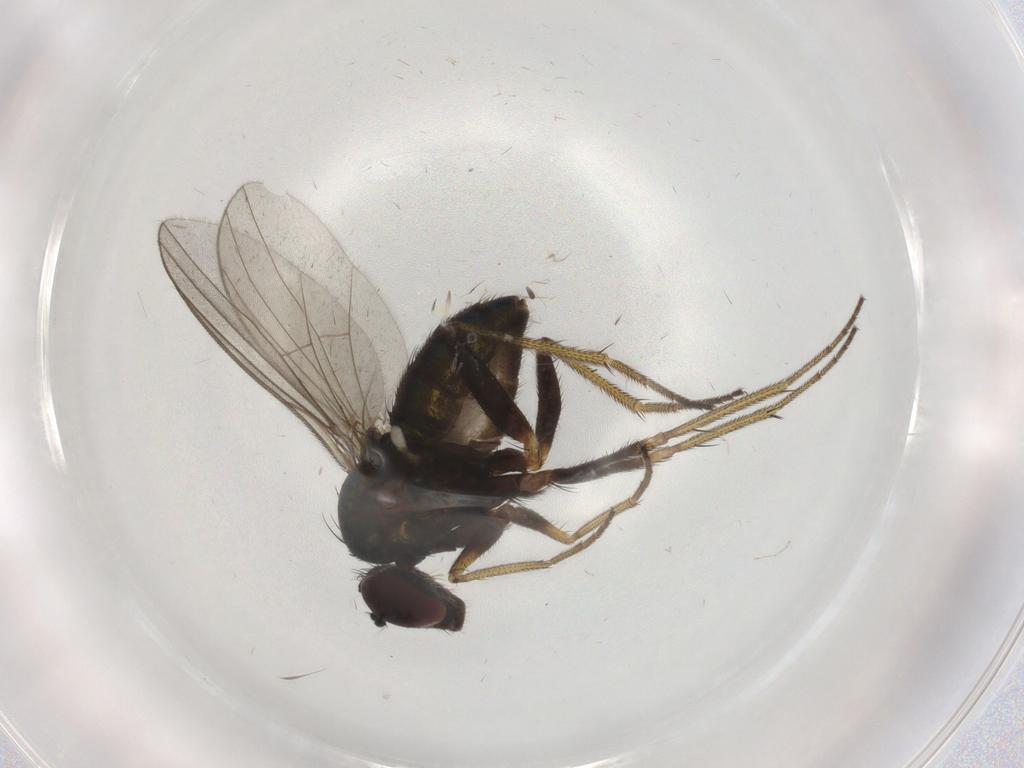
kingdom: Animalia
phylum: Arthropoda
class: Insecta
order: Diptera
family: Dolichopodidae
